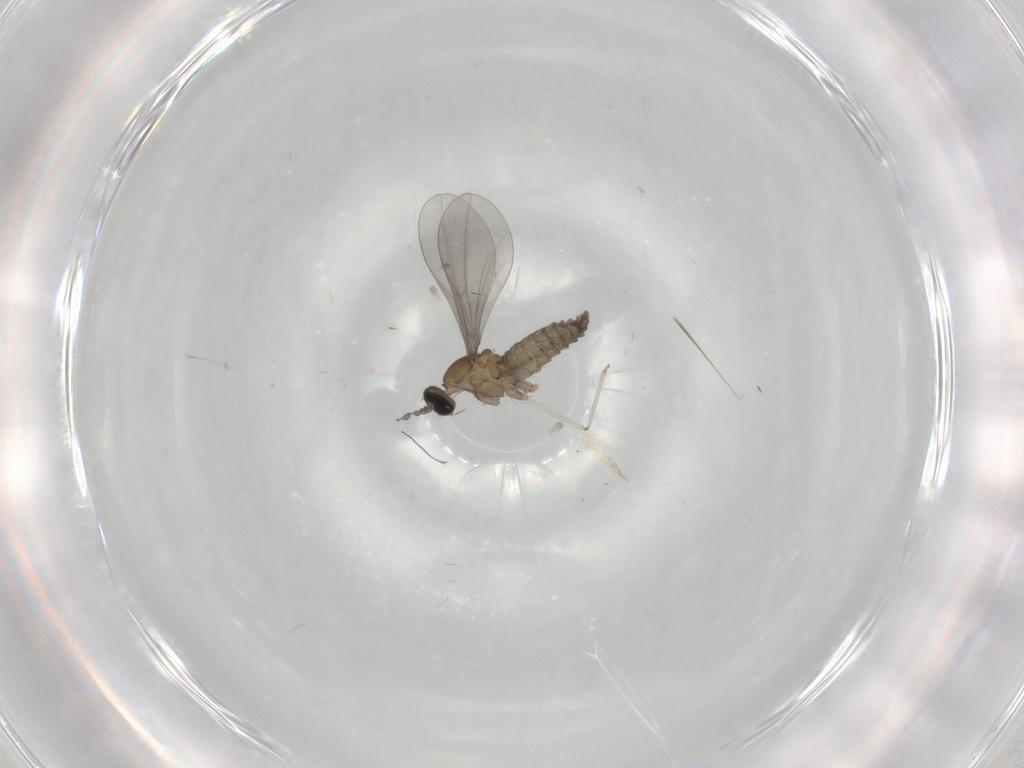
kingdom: Animalia
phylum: Arthropoda
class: Insecta
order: Diptera
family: Cecidomyiidae
